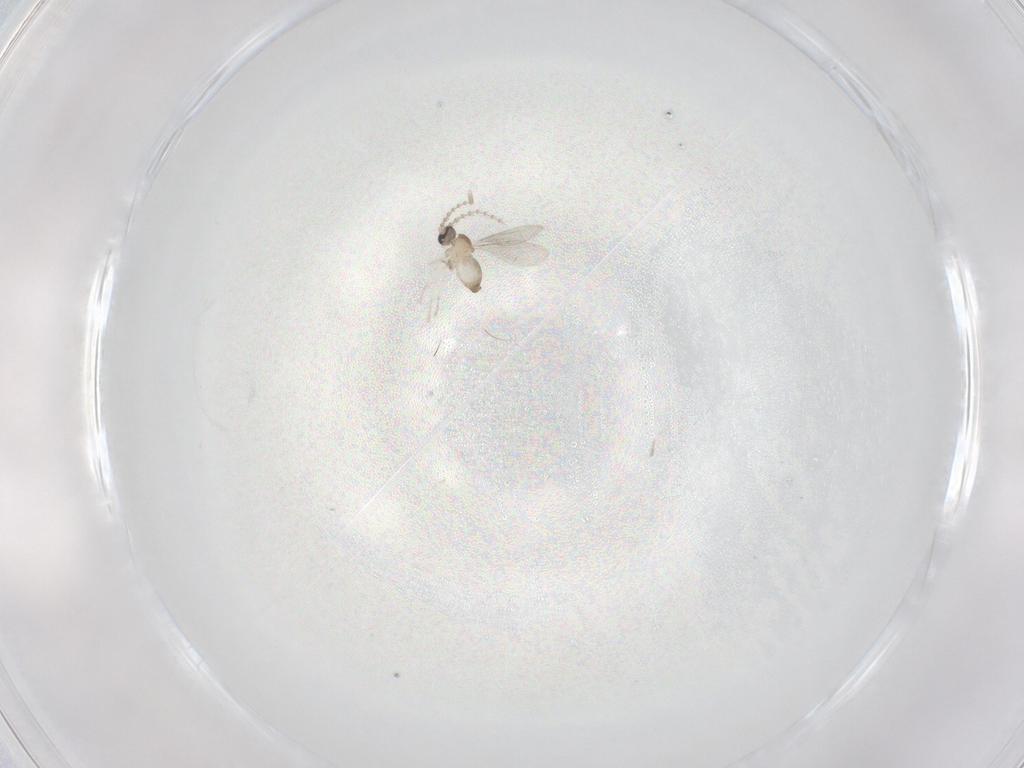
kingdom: Animalia
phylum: Arthropoda
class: Insecta
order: Diptera
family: Cecidomyiidae
